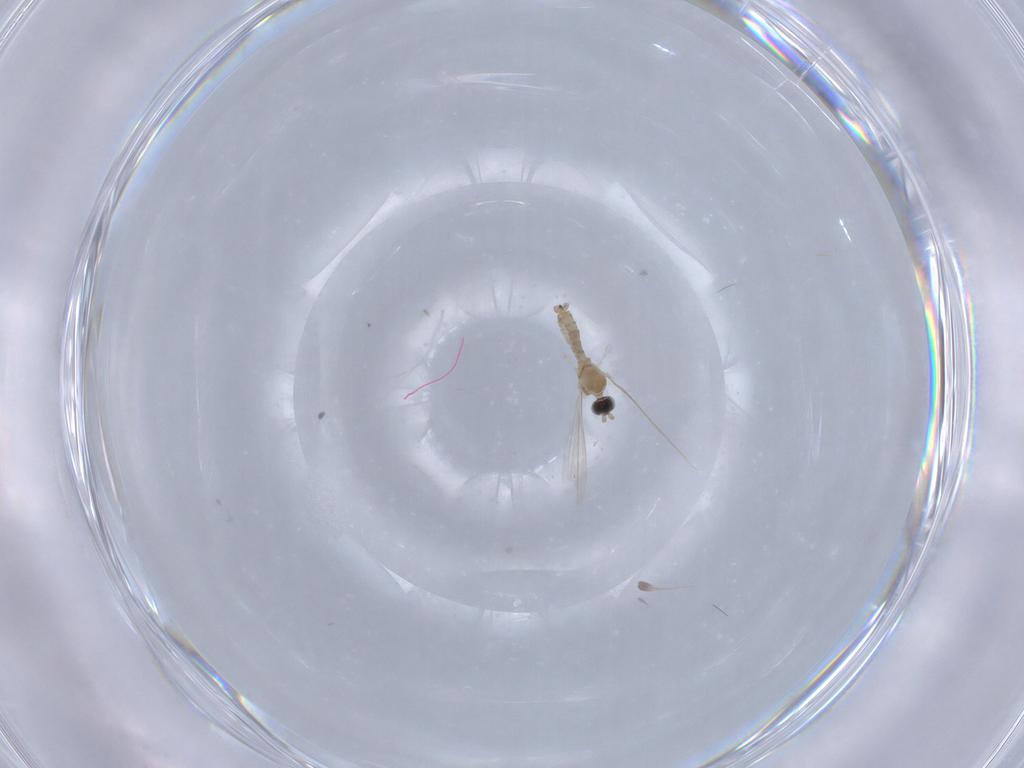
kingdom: Animalia
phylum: Arthropoda
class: Insecta
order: Diptera
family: Cecidomyiidae
